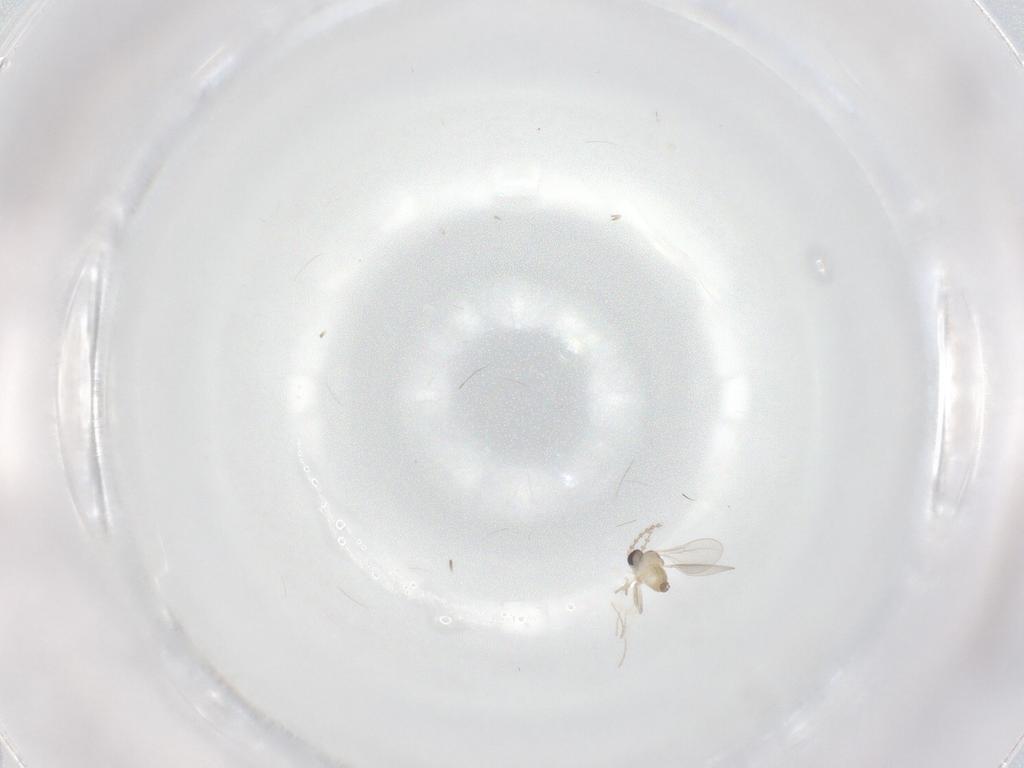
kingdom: Animalia
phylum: Arthropoda
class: Insecta
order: Diptera
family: Cecidomyiidae
